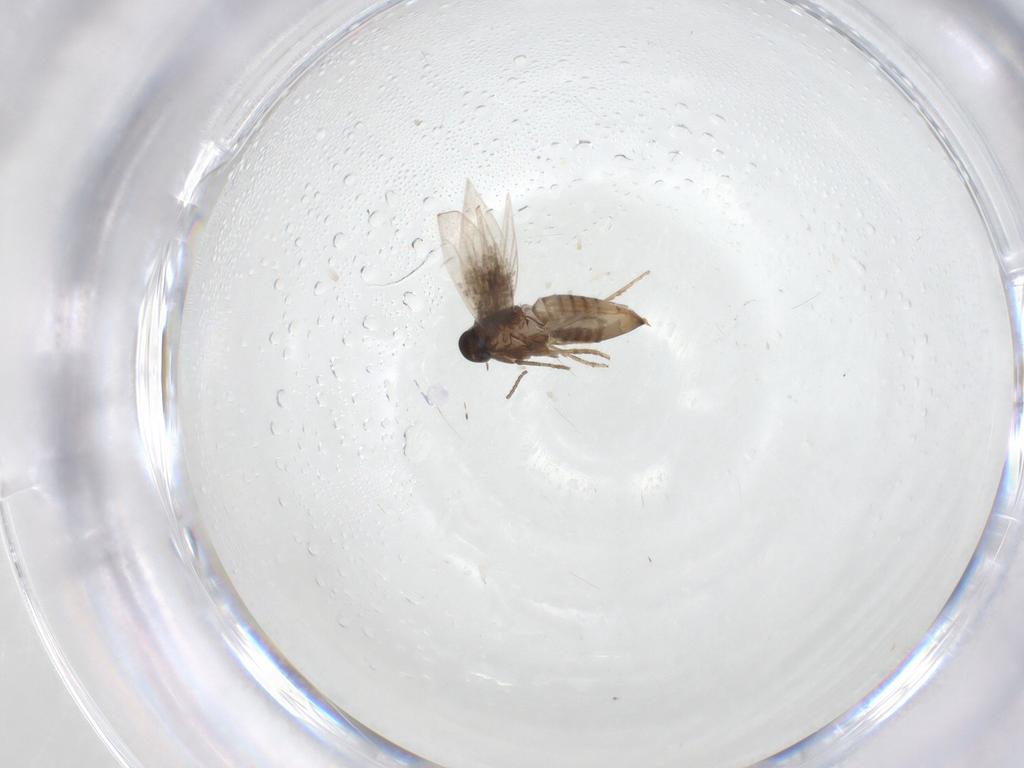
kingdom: Animalia
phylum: Arthropoda
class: Insecta
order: Lepidoptera
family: Heliozelidae
